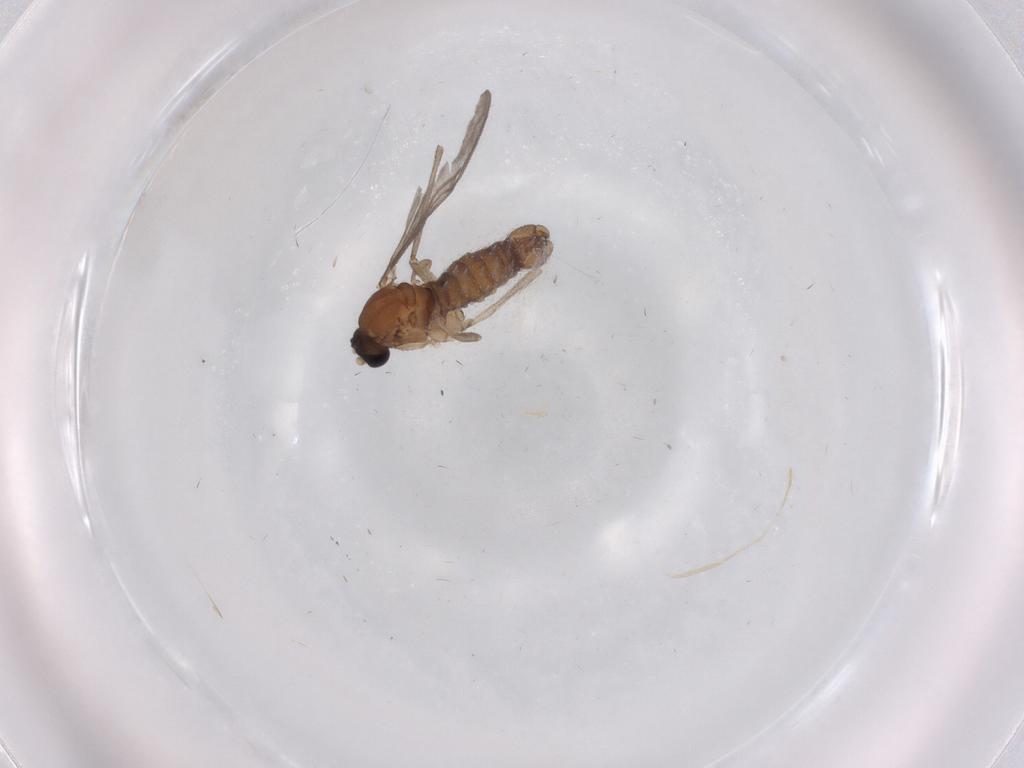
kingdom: Animalia
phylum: Arthropoda
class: Insecta
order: Diptera
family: Sciaridae
